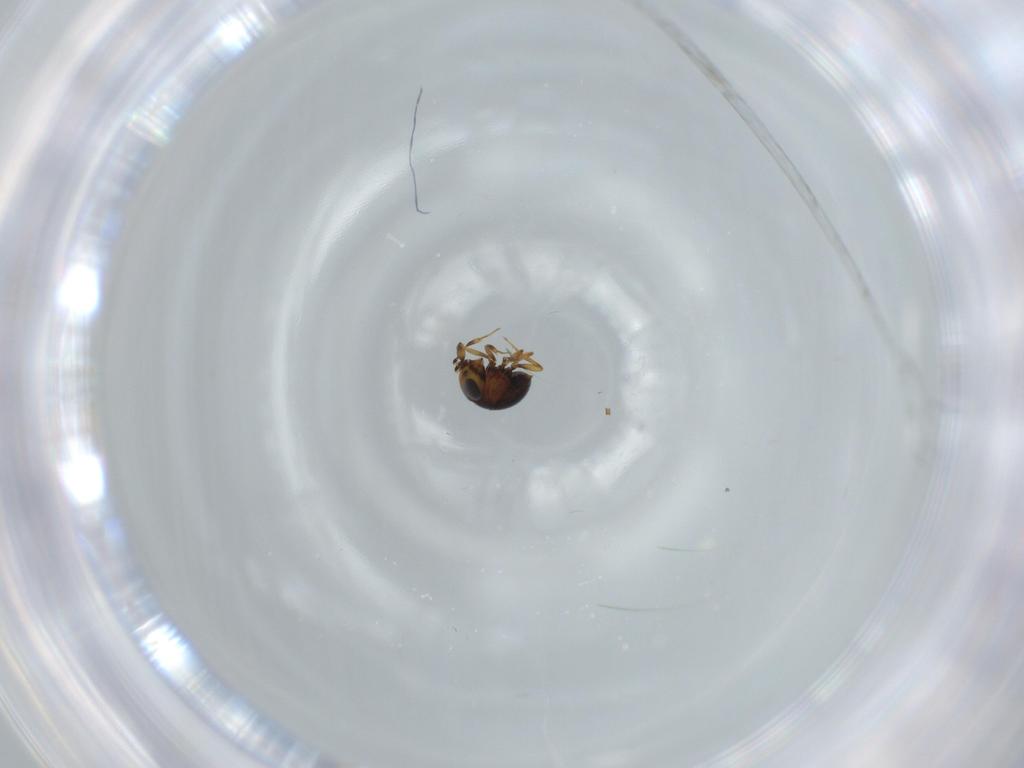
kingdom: Animalia
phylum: Arthropoda
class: Insecta
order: Hymenoptera
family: Scelionidae
